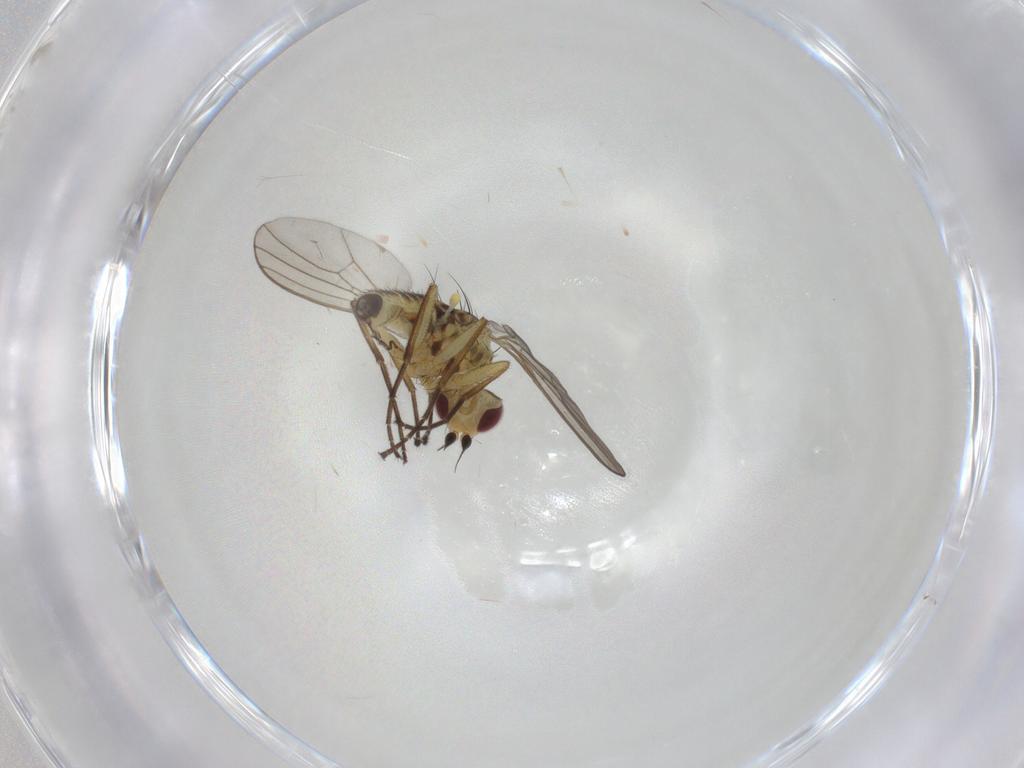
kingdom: Animalia
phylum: Arthropoda
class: Insecta
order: Diptera
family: Agromyzidae
